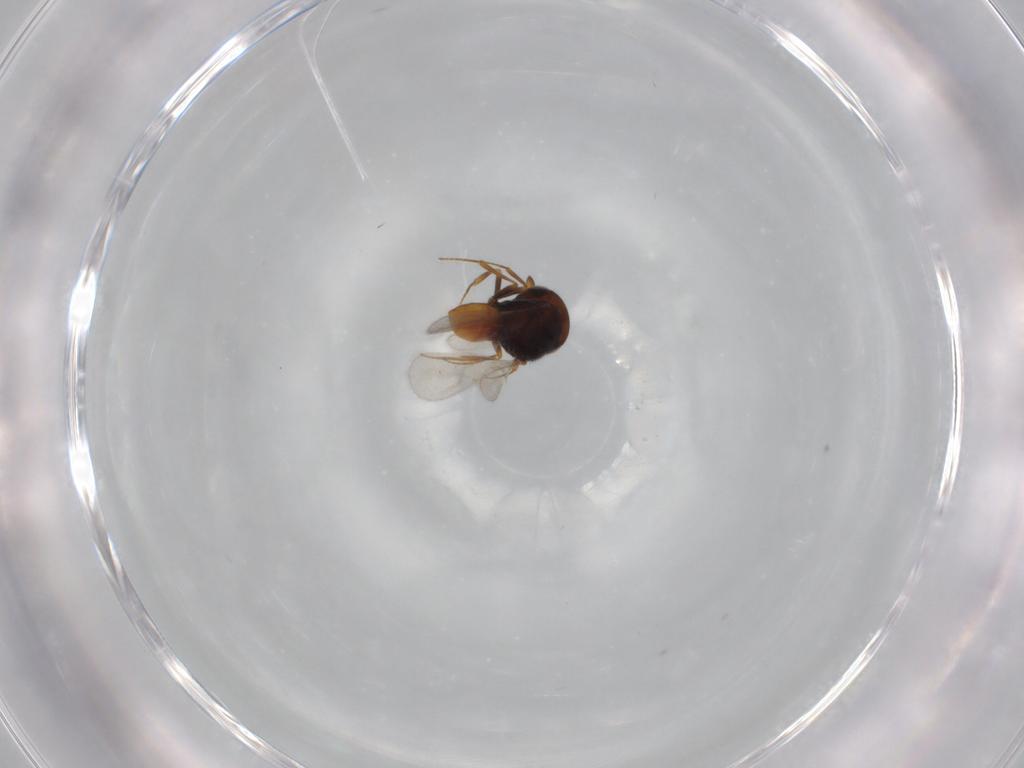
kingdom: Animalia
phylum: Arthropoda
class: Insecta
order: Hymenoptera
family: Scelionidae
